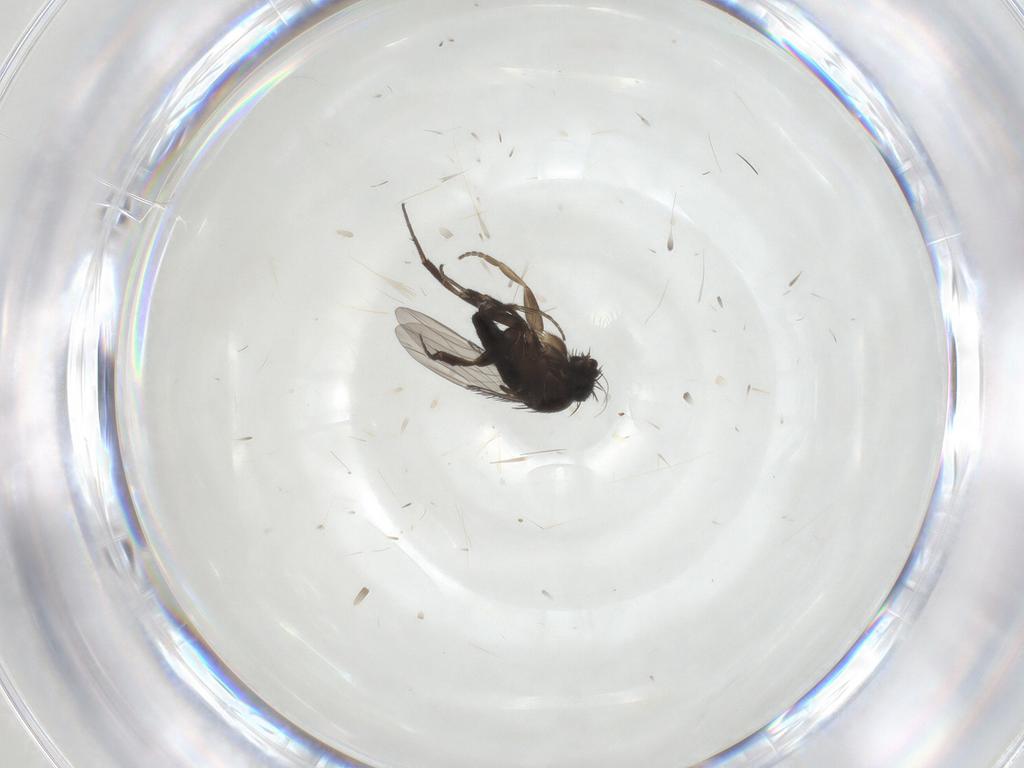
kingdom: Animalia
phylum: Arthropoda
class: Insecta
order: Diptera
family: Phoridae
